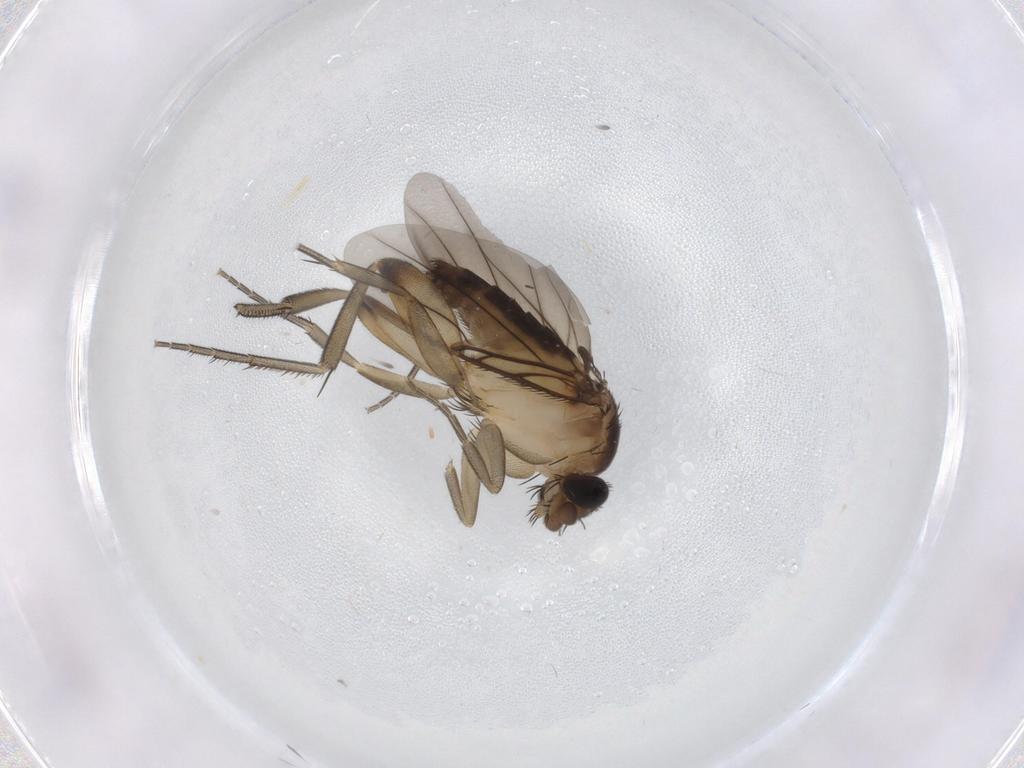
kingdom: Animalia
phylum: Arthropoda
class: Insecta
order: Diptera
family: Phoridae
